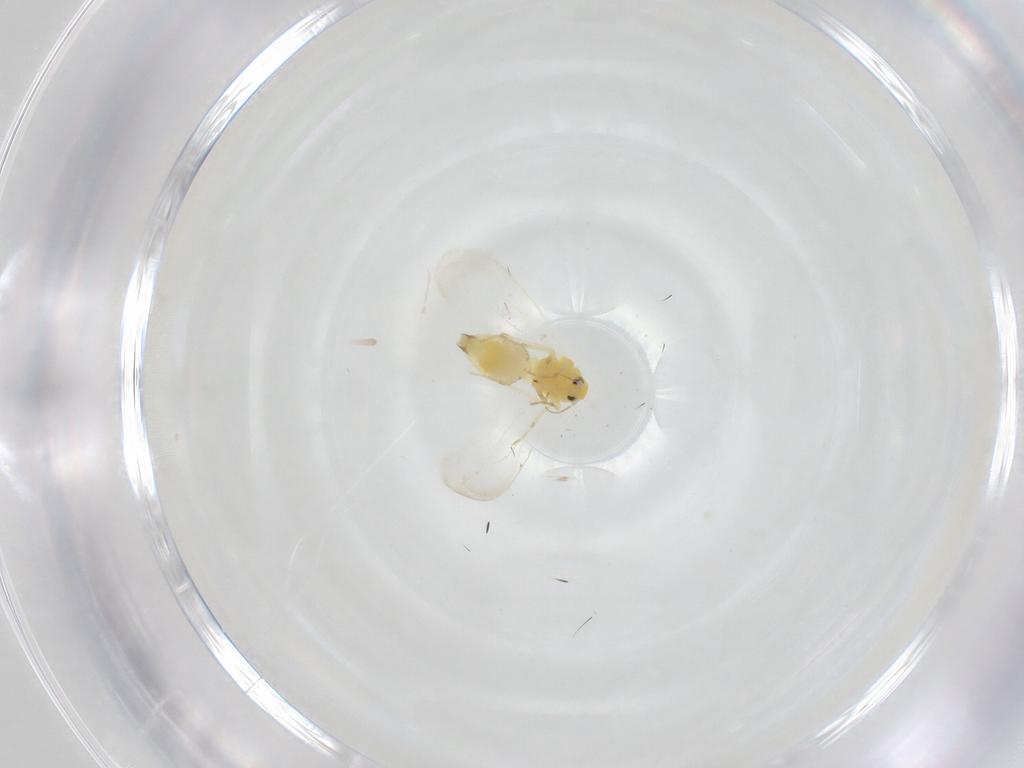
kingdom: Animalia
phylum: Arthropoda
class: Insecta
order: Hemiptera
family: Aleyrodidae
